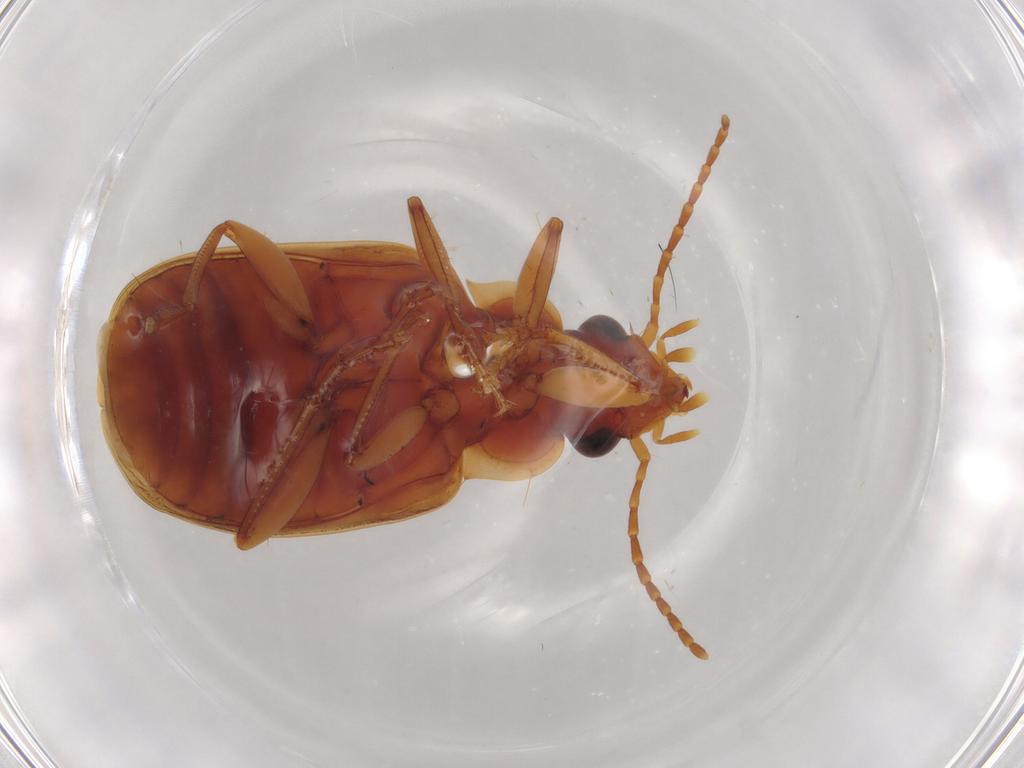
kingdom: Animalia
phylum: Arthropoda
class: Insecta
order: Coleoptera
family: Carabidae
